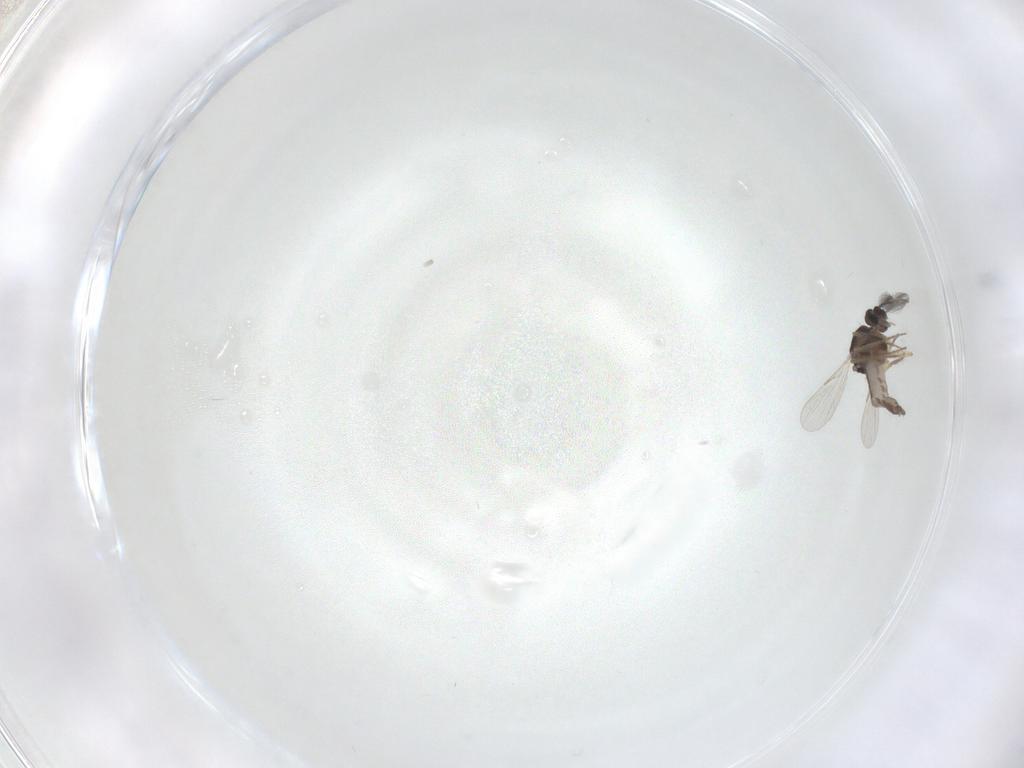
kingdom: Animalia
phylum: Arthropoda
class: Insecta
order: Diptera
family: Ceratopogonidae
